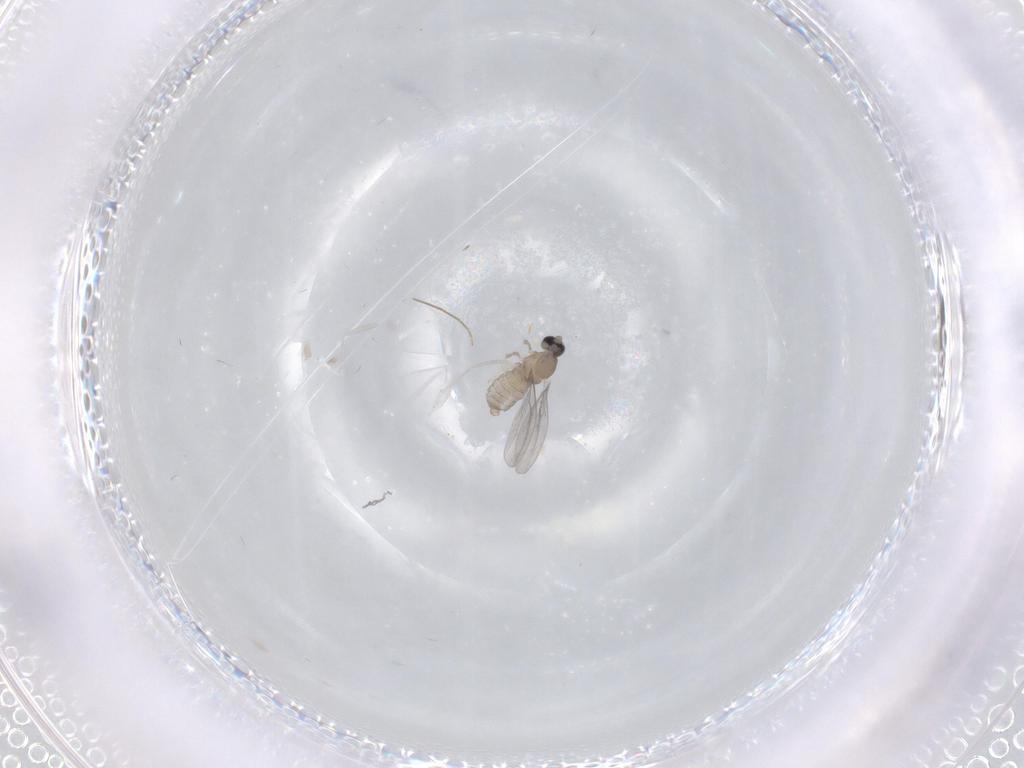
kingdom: Animalia
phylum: Arthropoda
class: Insecta
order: Diptera
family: Cecidomyiidae
